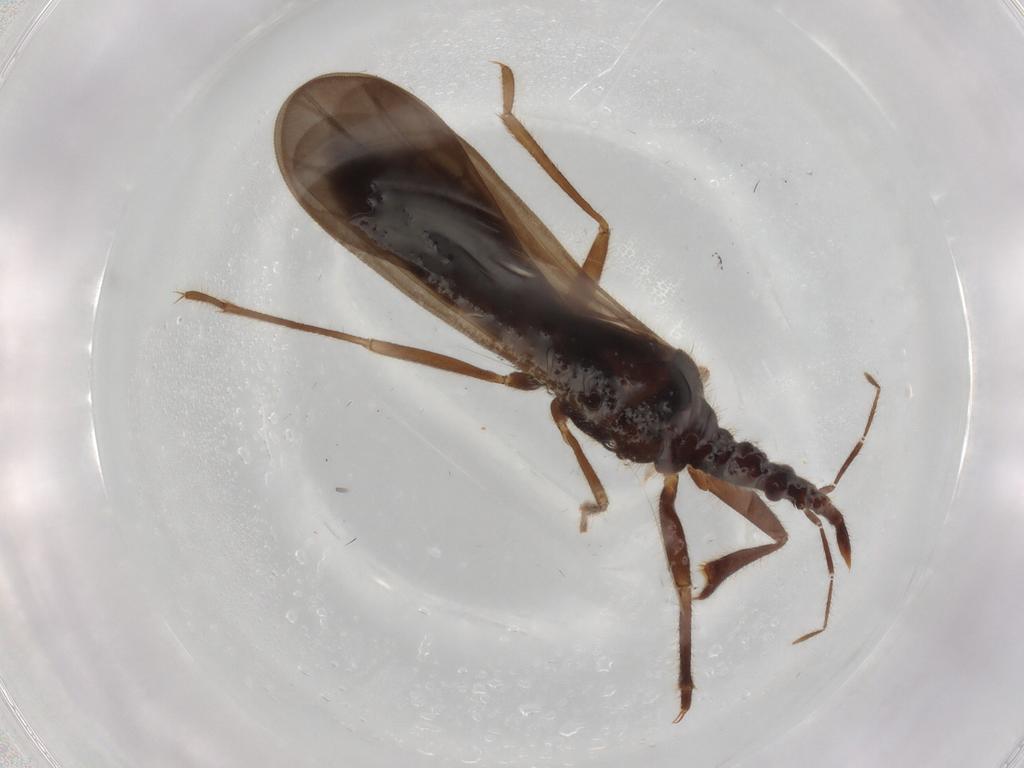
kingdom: Animalia
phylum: Arthropoda
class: Insecta
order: Hemiptera
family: Enicocephalidae
